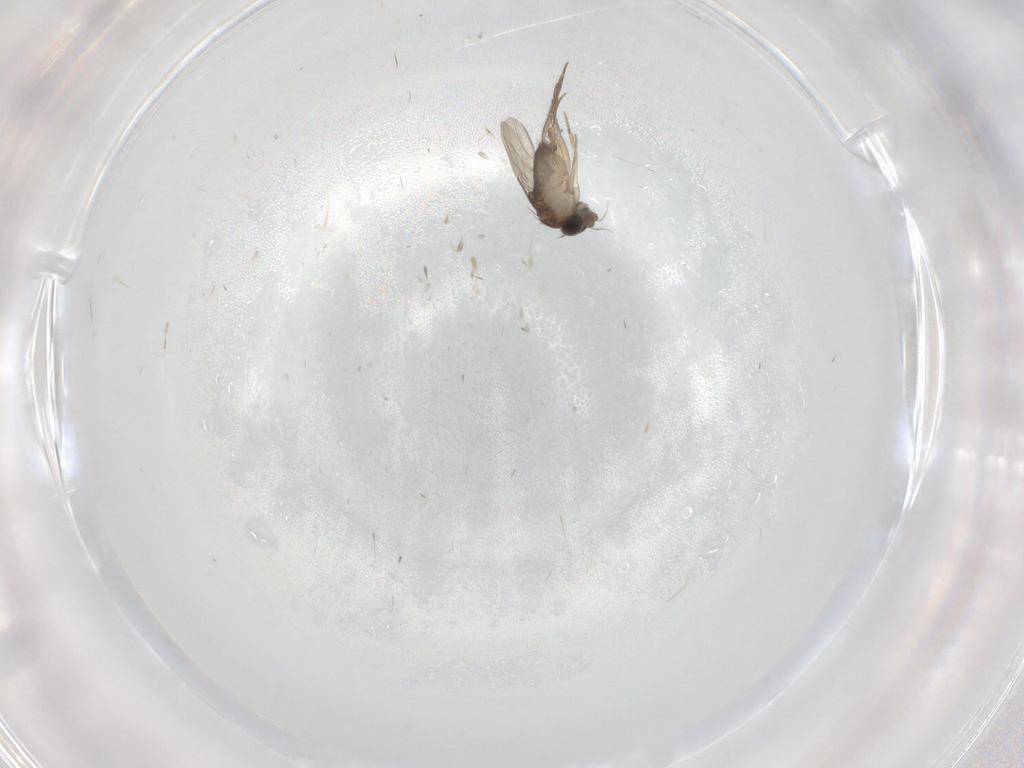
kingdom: Animalia
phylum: Arthropoda
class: Insecta
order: Diptera
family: Phoridae
